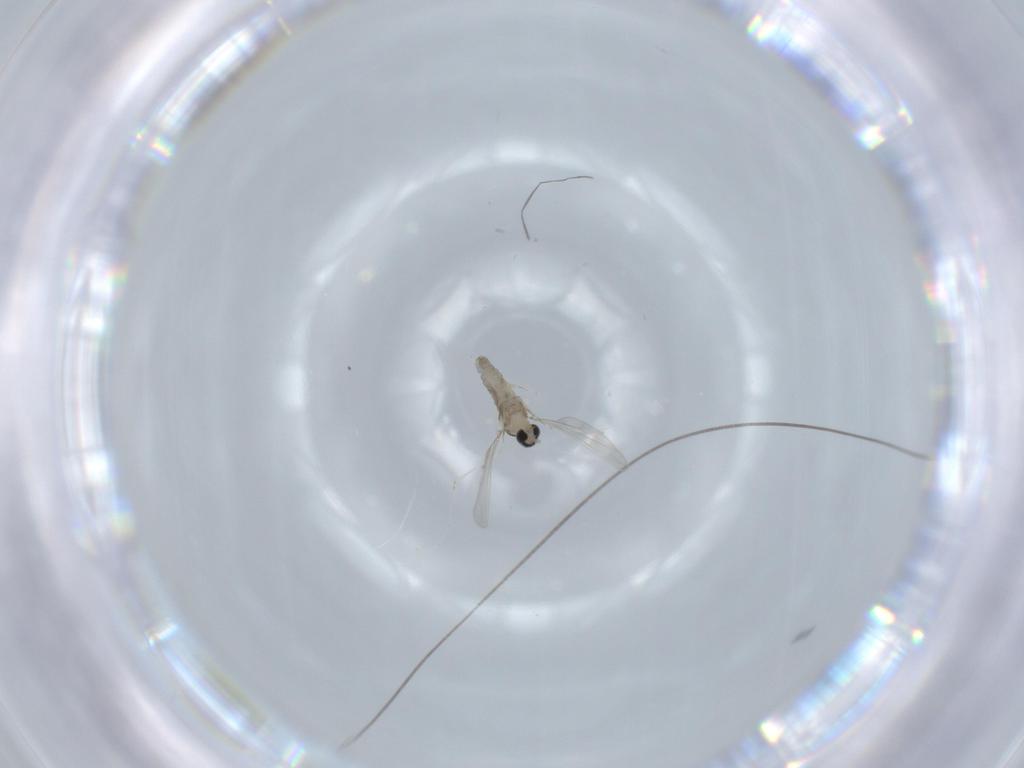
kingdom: Animalia
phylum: Arthropoda
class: Insecta
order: Diptera
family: Cecidomyiidae
